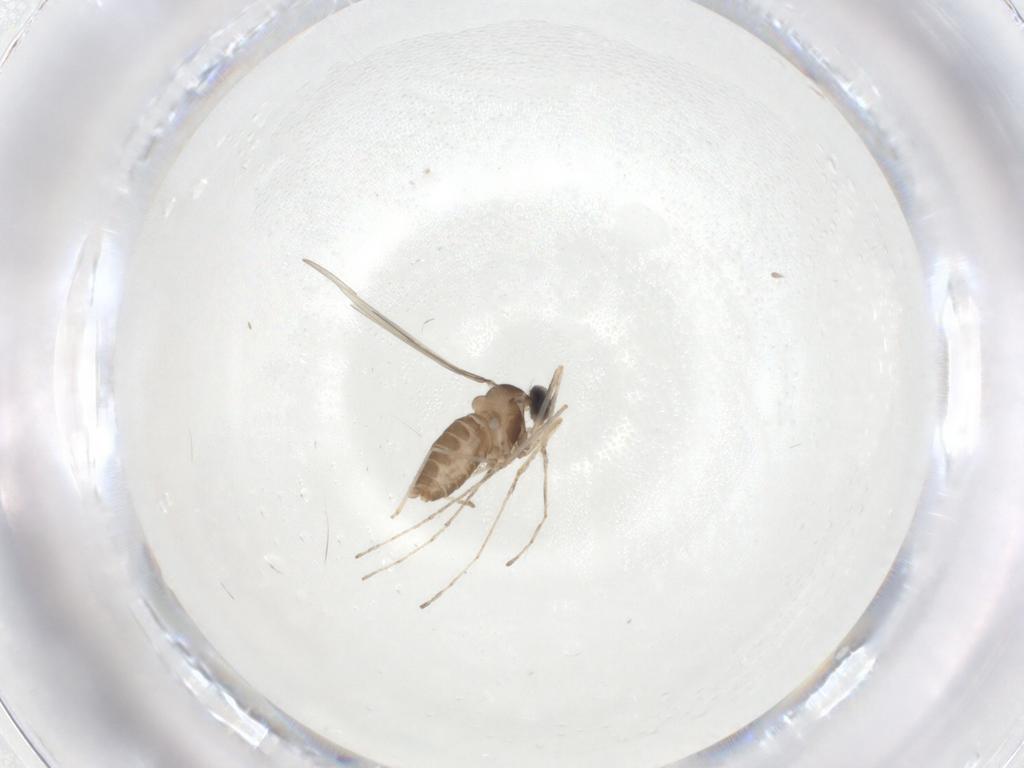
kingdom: Animalia
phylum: Arthropoda
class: Insecta
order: Diptera
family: Cecidomyiidae
